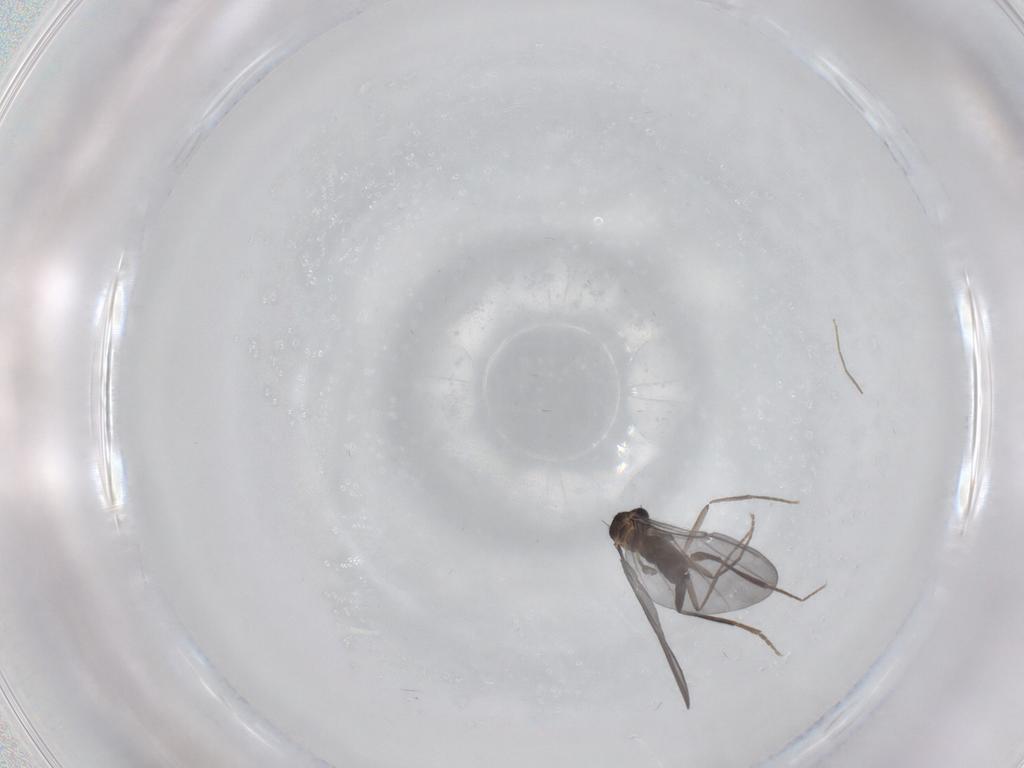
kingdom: Animalia
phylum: Arthropoda
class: Insecta
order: Diptera
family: Phoridae
